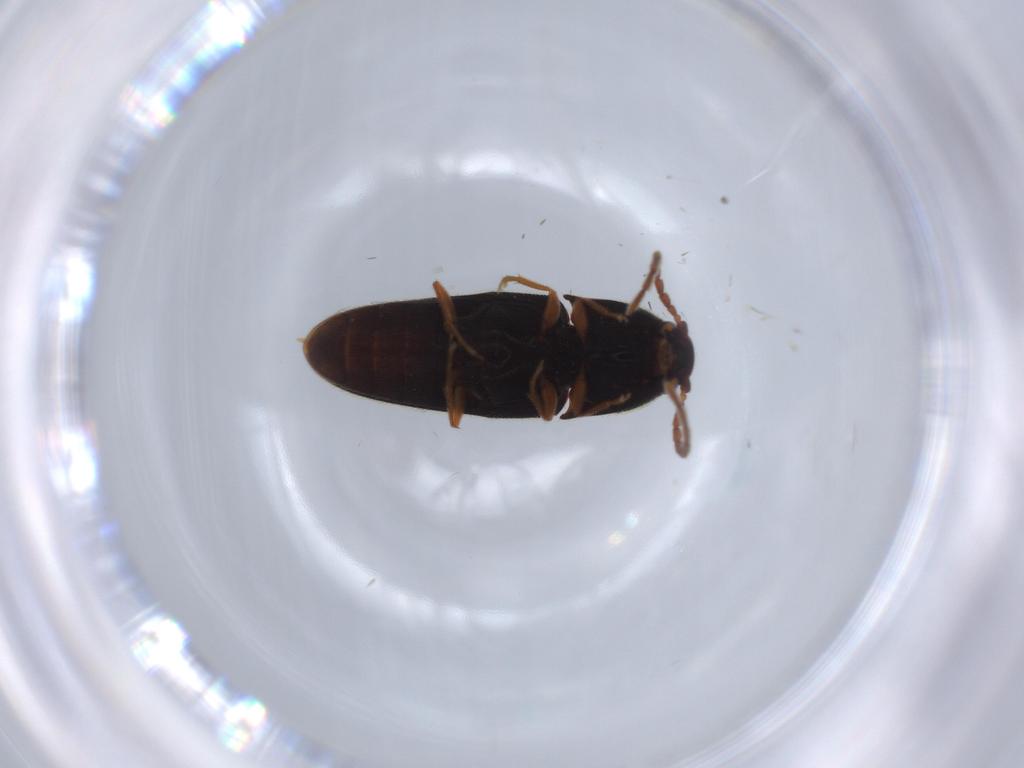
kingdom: Animalia
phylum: Arthropoda
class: Insecta
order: Coleoptera
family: Elateridae
